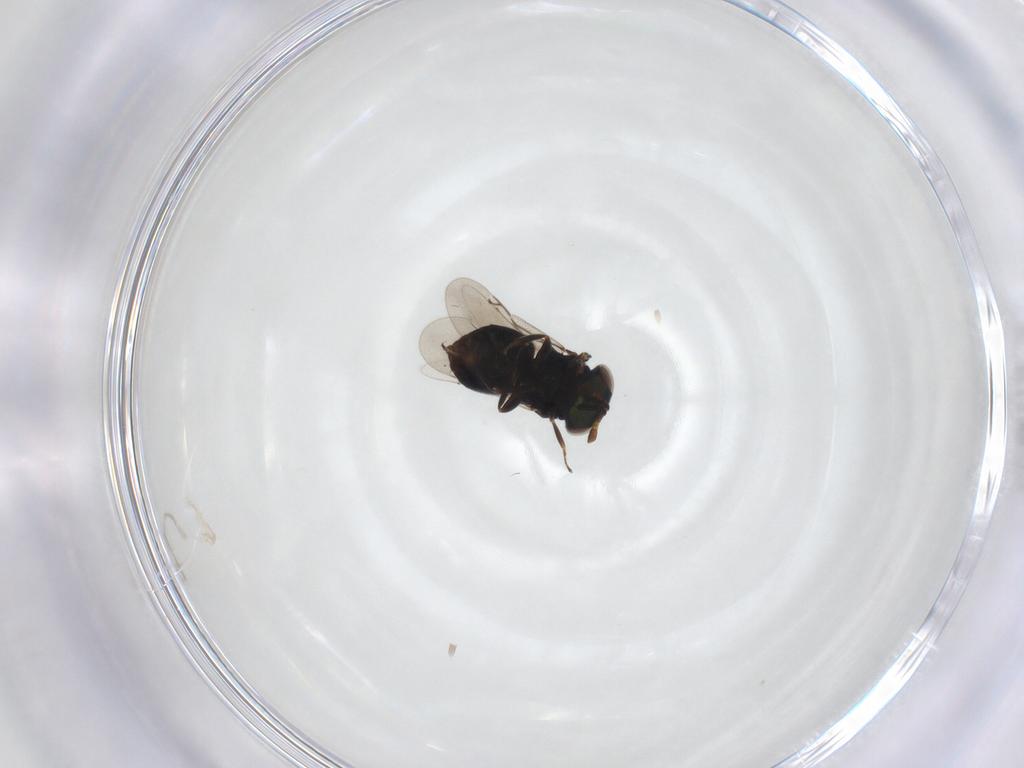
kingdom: Animalia
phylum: Arthropoda
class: Insecta
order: Hymenoptera
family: Eunotidae
